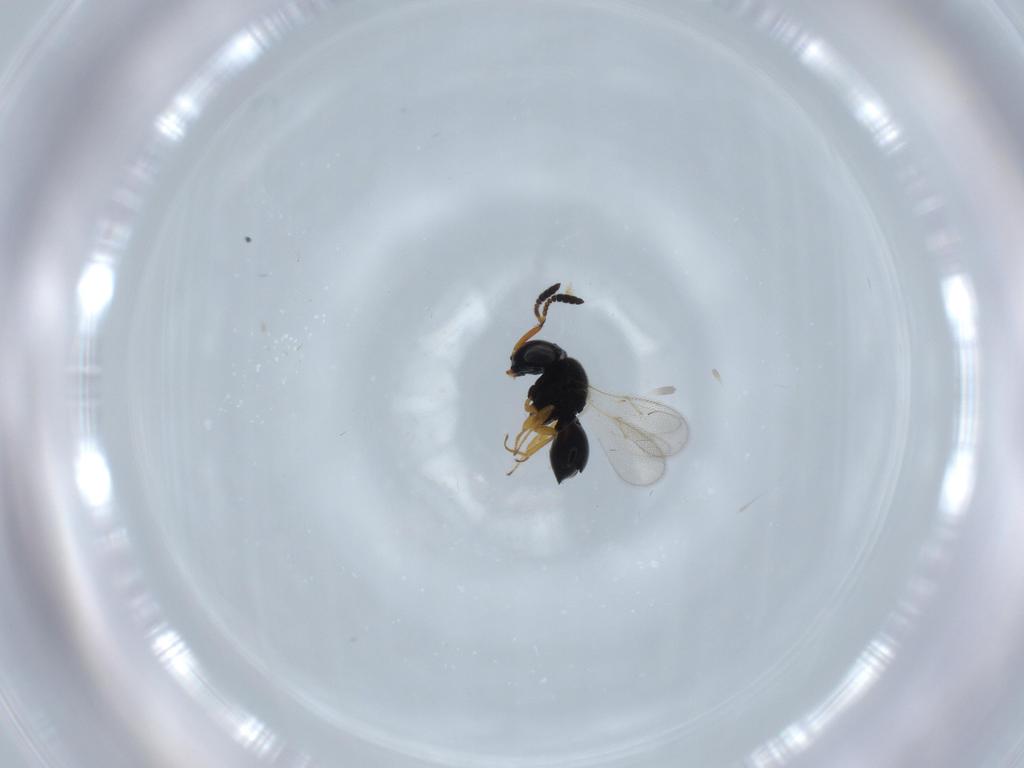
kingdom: Animalia
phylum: Arthropoda
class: Insecta
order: Hymenoptera
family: Scelionidae
